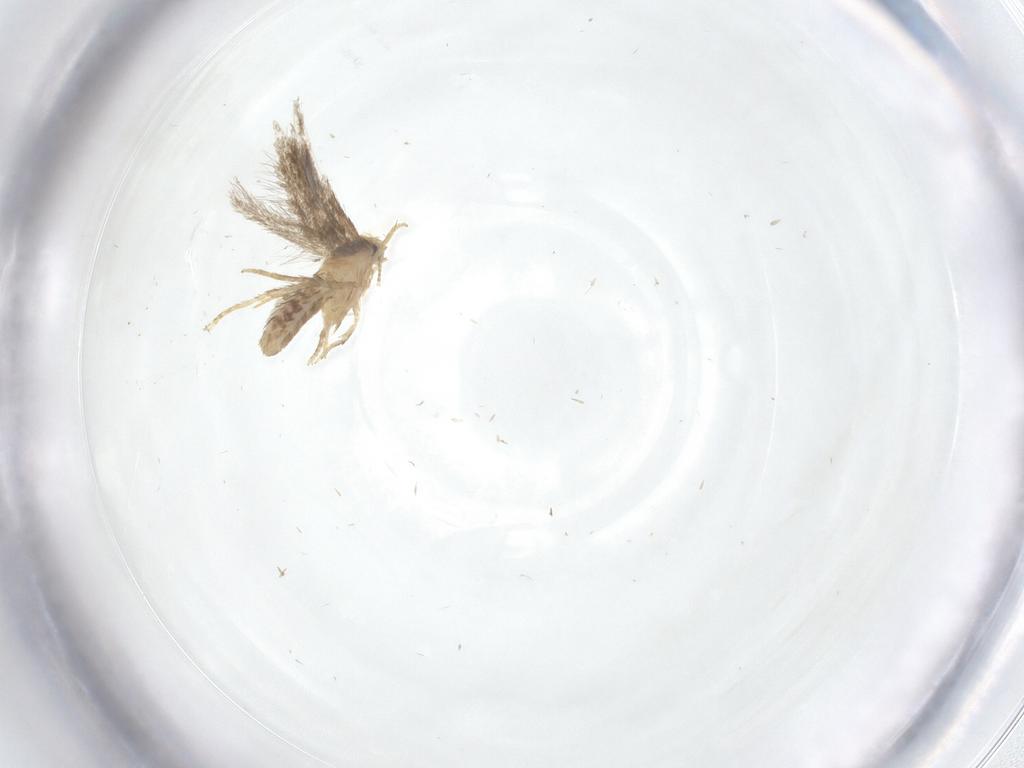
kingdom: Animalia
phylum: Arthropoda
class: Insecta
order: Lepidoptera
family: Nepticulidae
